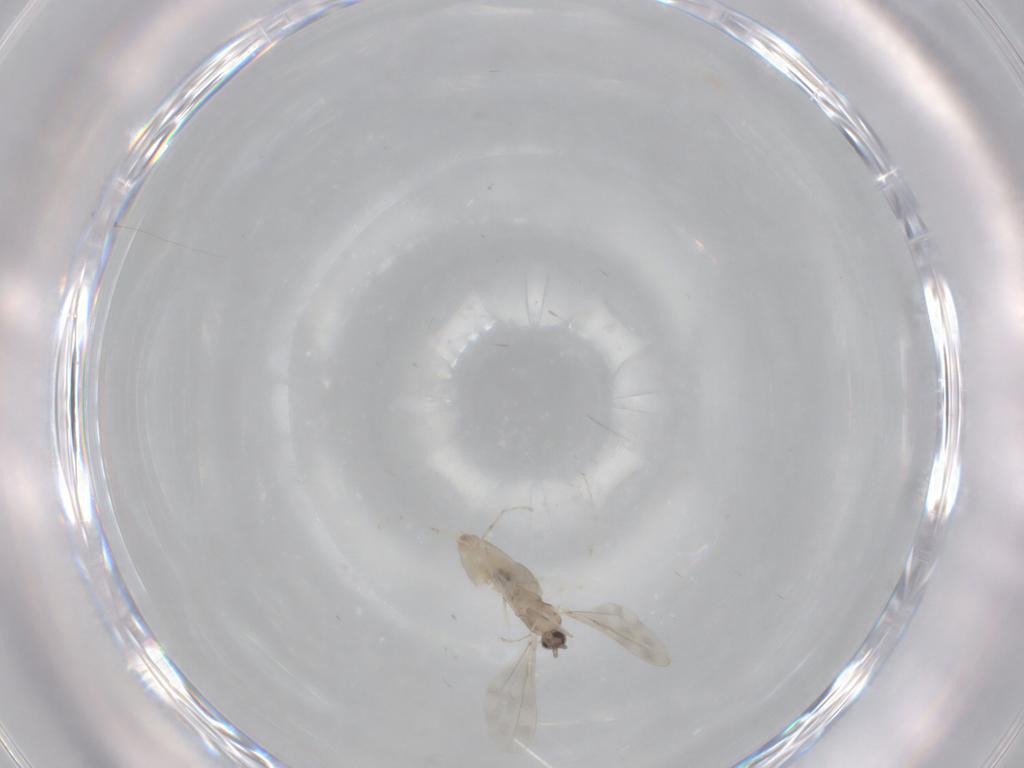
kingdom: Animalia
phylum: Arthropoda
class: Insecta
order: Diptera
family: Cecidomyiidae
